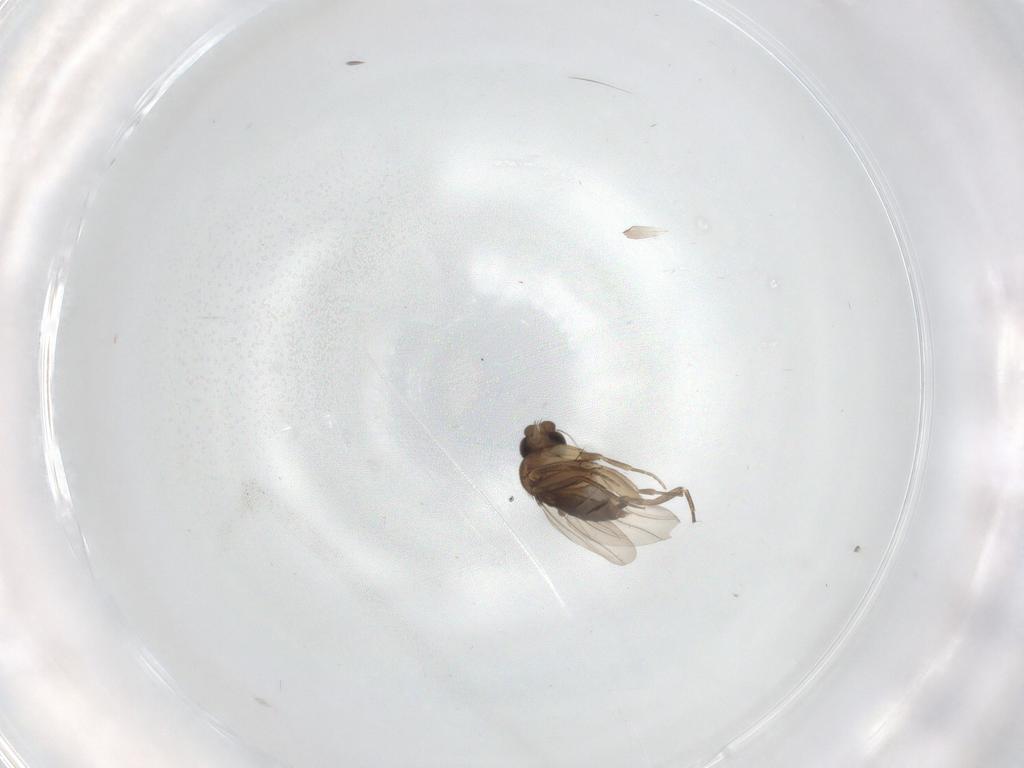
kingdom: Animalia
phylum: Arthropoda
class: Insecta
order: Diptera
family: Phoridae
